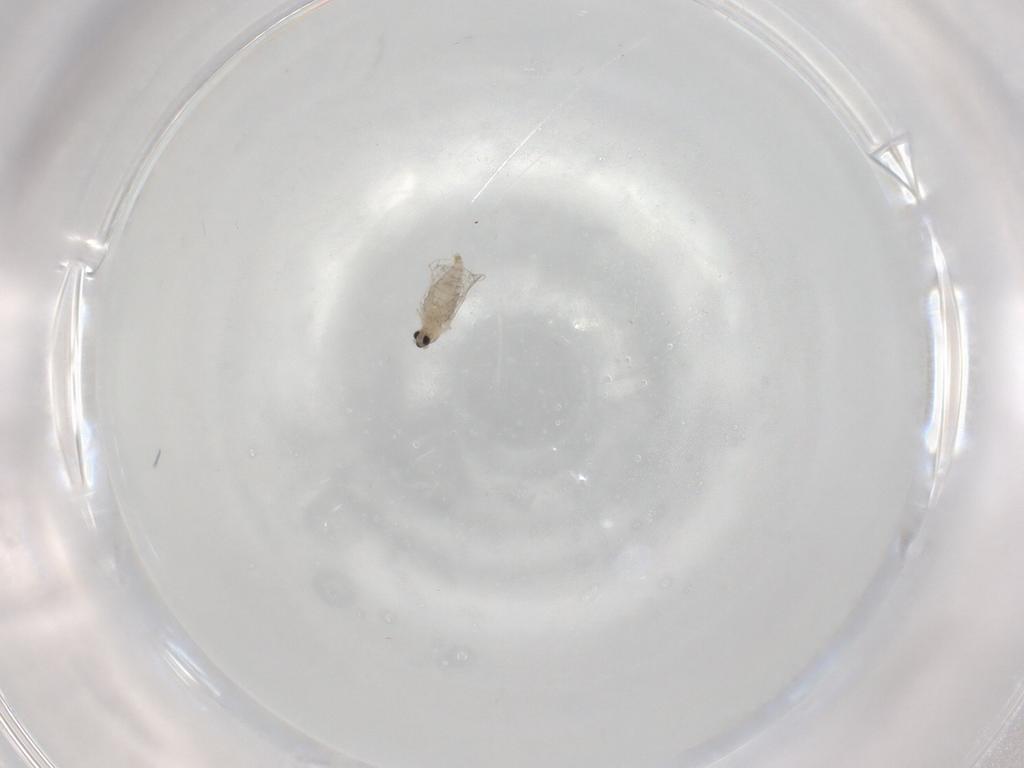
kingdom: Animalia
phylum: Arthropoda
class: Insecta
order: Diptera
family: Cecidomyiidae
